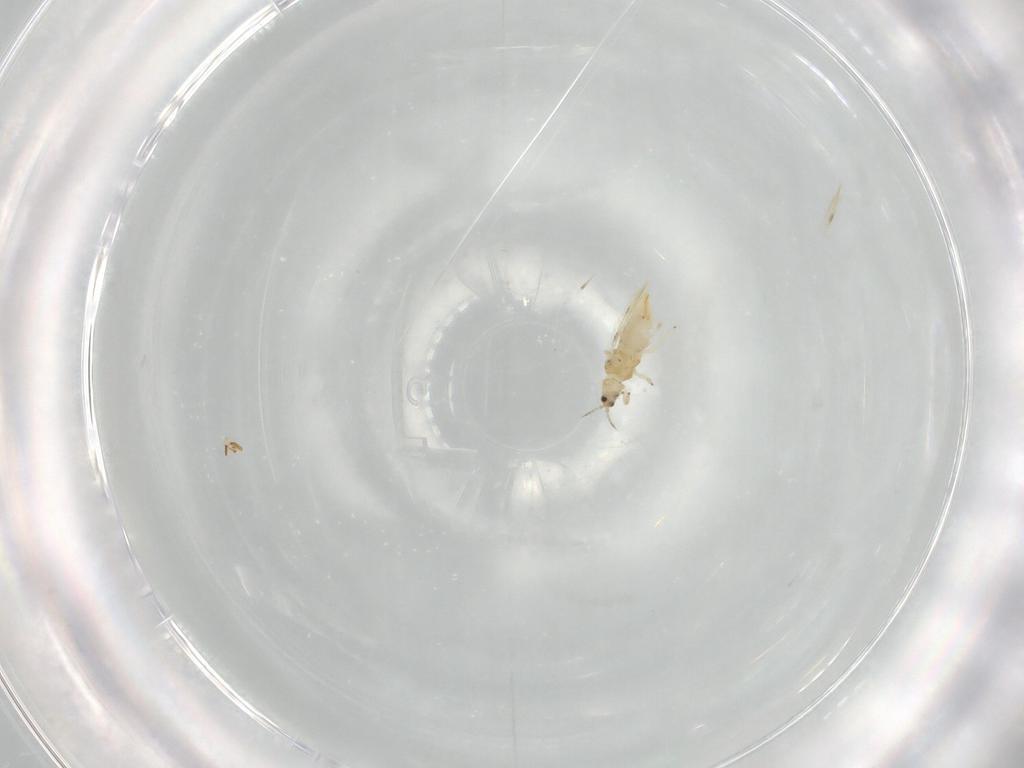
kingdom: Animalia
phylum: Arthropoda
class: Insecta
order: Thysanoptera
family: Thripidae
